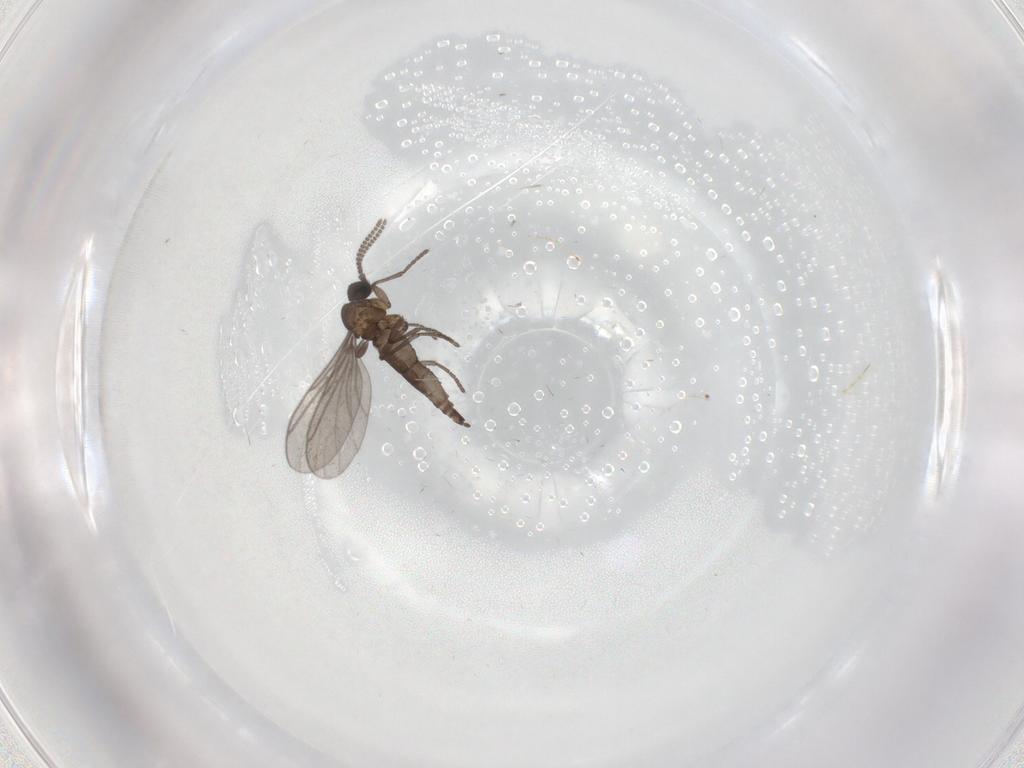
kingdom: Animalia
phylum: Arthropoda
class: Insecta
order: Diptera
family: Chironomidae
